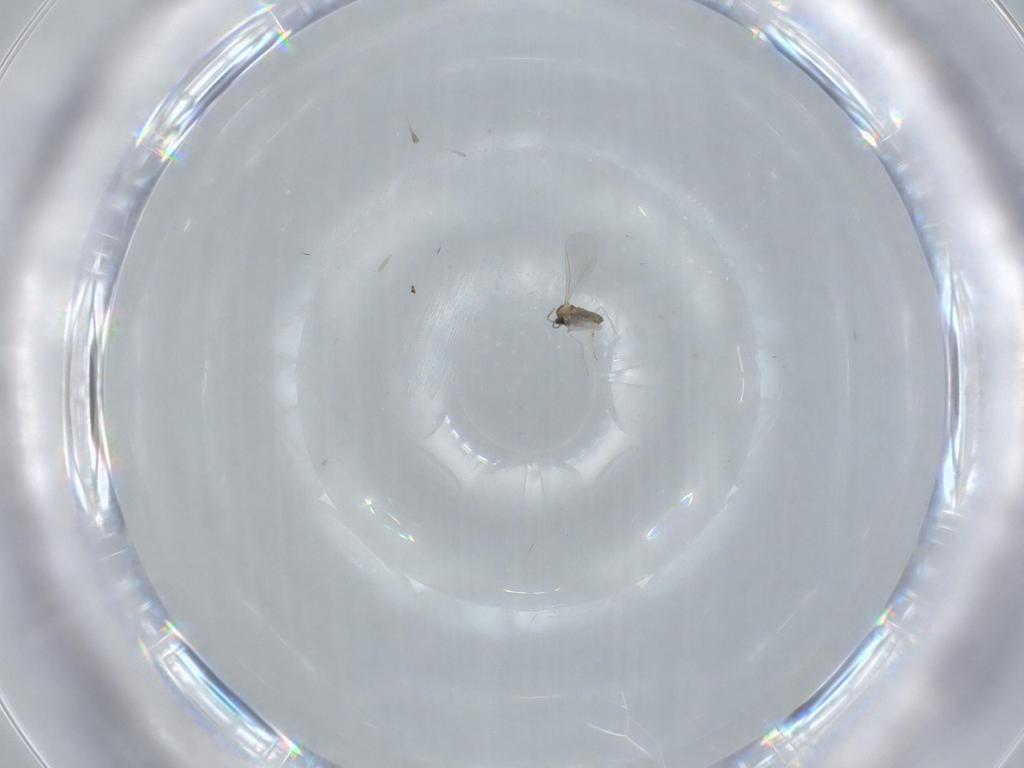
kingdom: Animalia
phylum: Arthropoda
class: Insecta
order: Diptera
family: Cecidomyiidae
